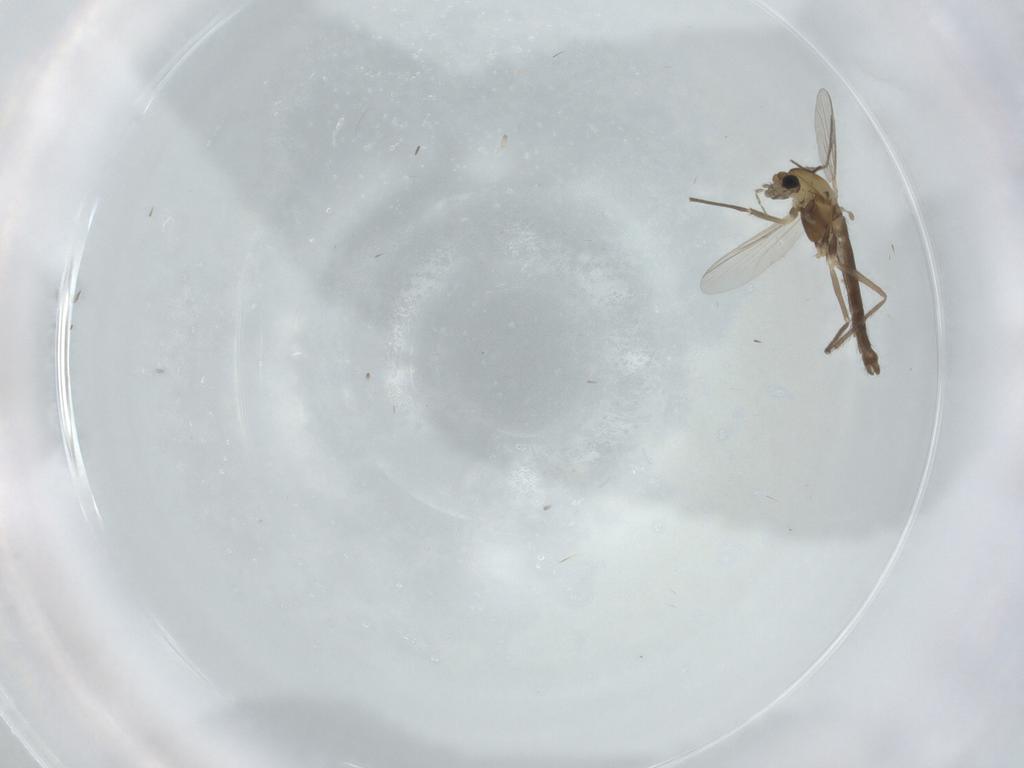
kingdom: Animalia
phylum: Arthropoda
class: Insecta
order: Diptera
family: Chironomidae
